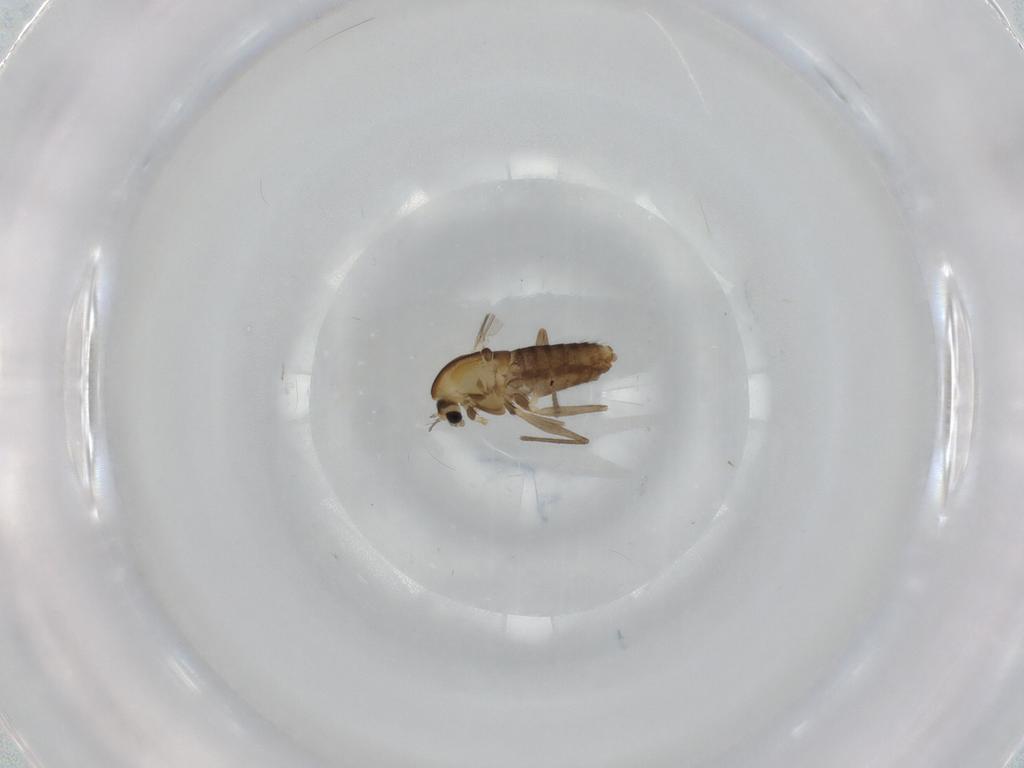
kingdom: Animalia
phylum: Arthropoda
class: Insecta
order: Diptera
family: Chironomidae
